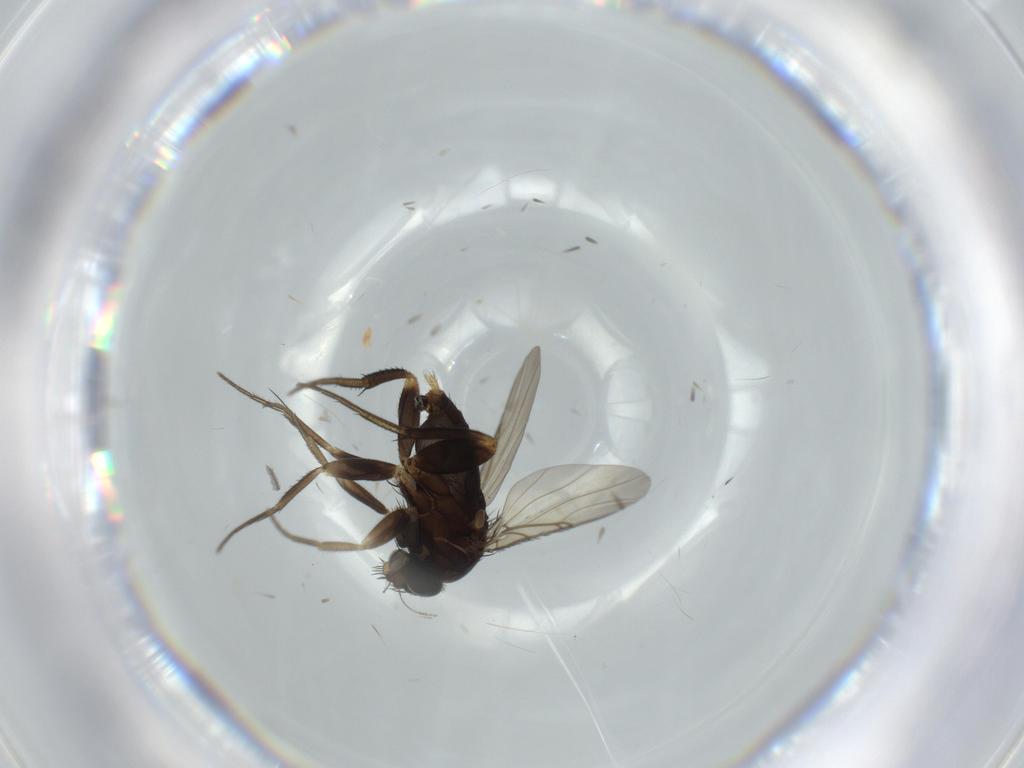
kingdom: Animalia
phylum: Arthropoda
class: Insecta
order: Diptera
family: Phoridae
